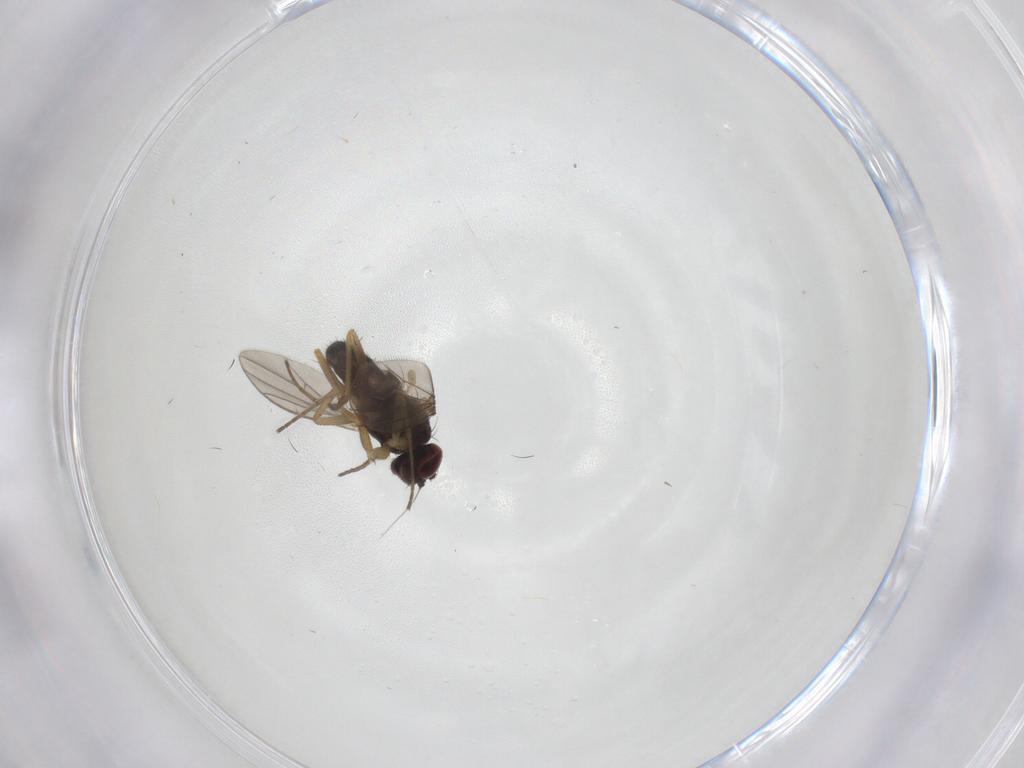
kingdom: Animalia
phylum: Arthropoda
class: Insecta
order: Diptera
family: Dolichopodidae
